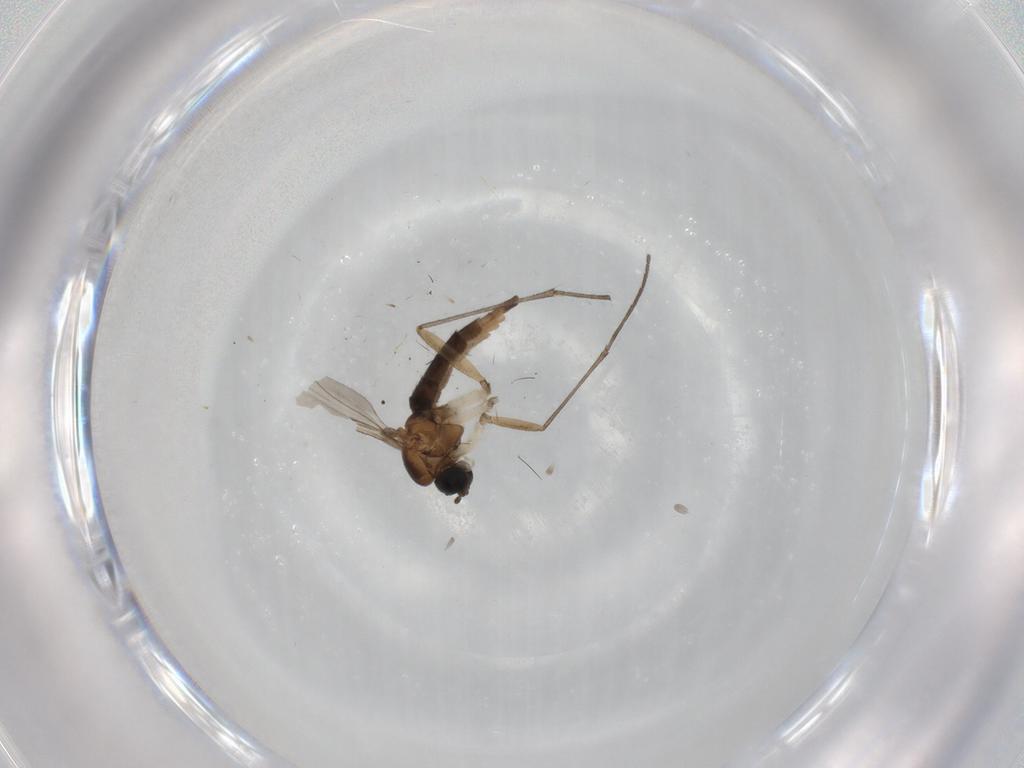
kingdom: Animalia
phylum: Arthropoda
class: Insecta
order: Diptera
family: Sciaridae
